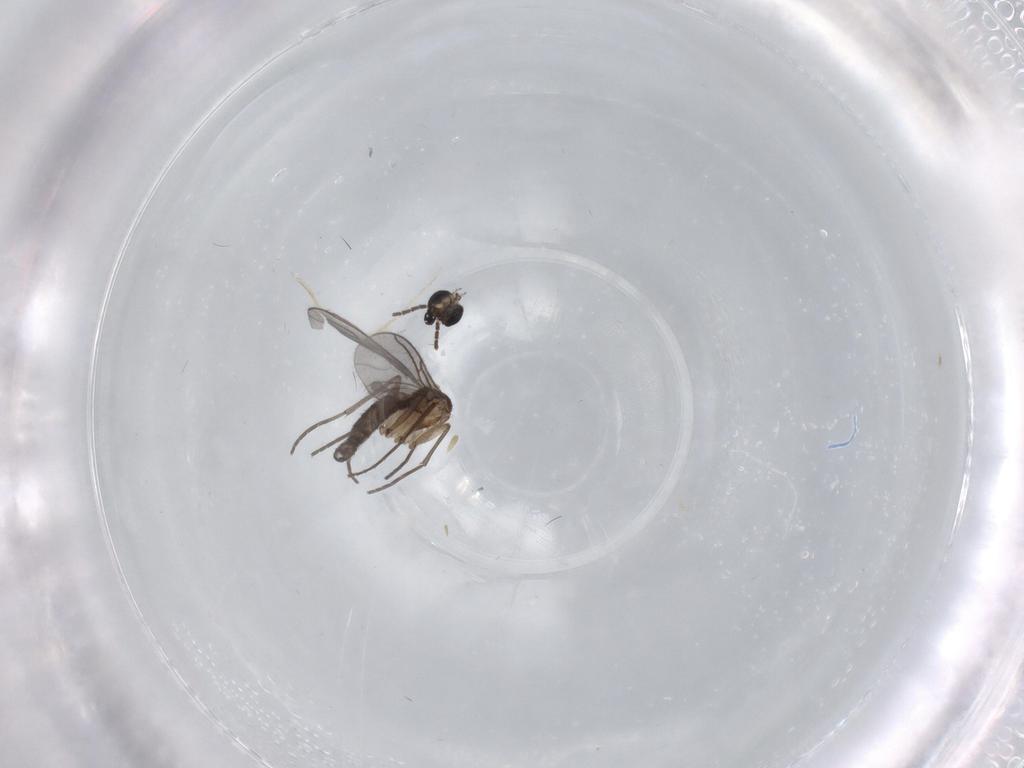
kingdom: Animalia
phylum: Arthropoda
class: Insecta
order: Diptera
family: Sciaridae
